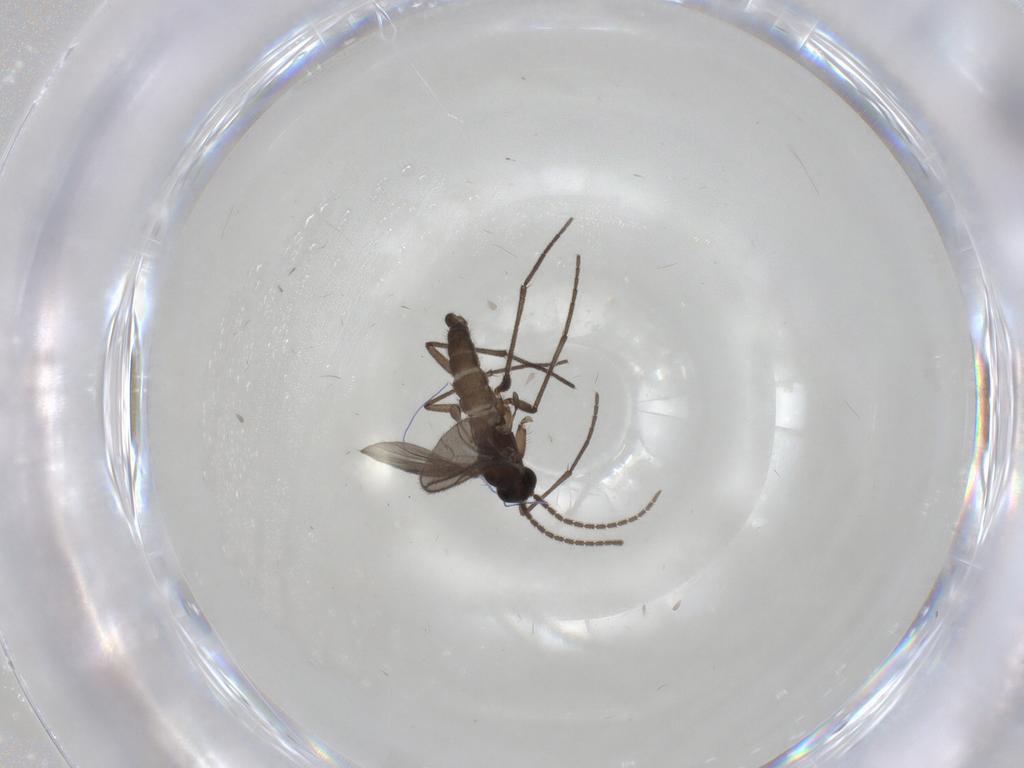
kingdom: Animalia
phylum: Arthropoda
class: Insecta
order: Diptera
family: Sciaridae
